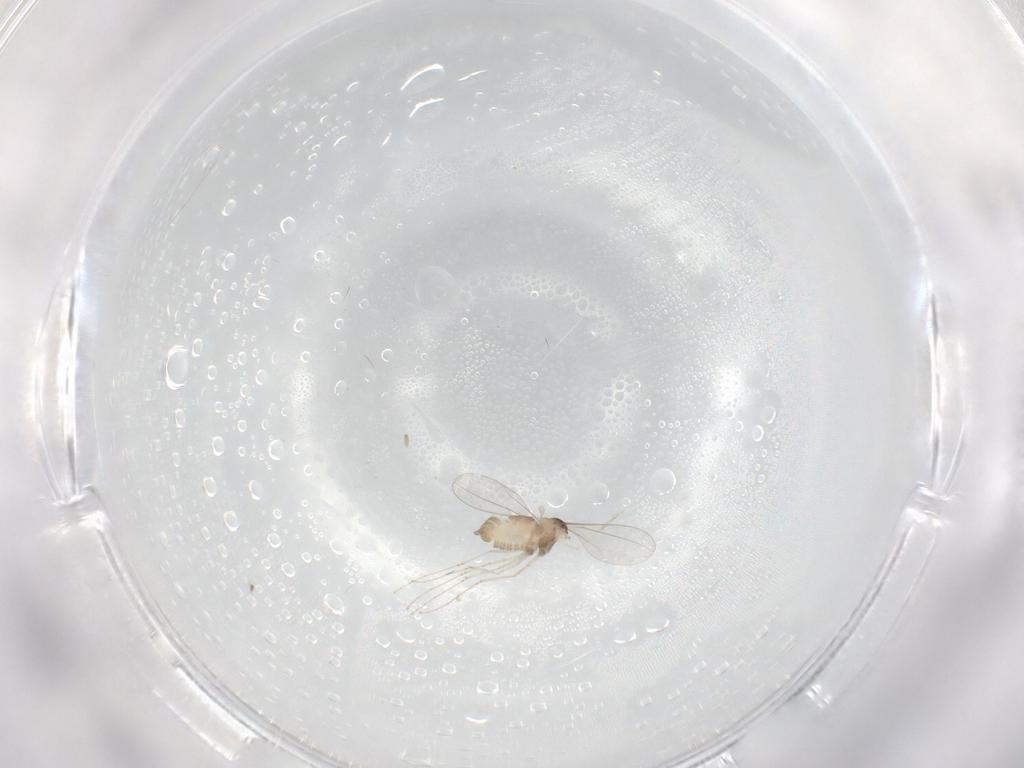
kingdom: Animalia
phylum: Arthropoda
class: Insecta
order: Diptera
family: Cecidomyiidae
